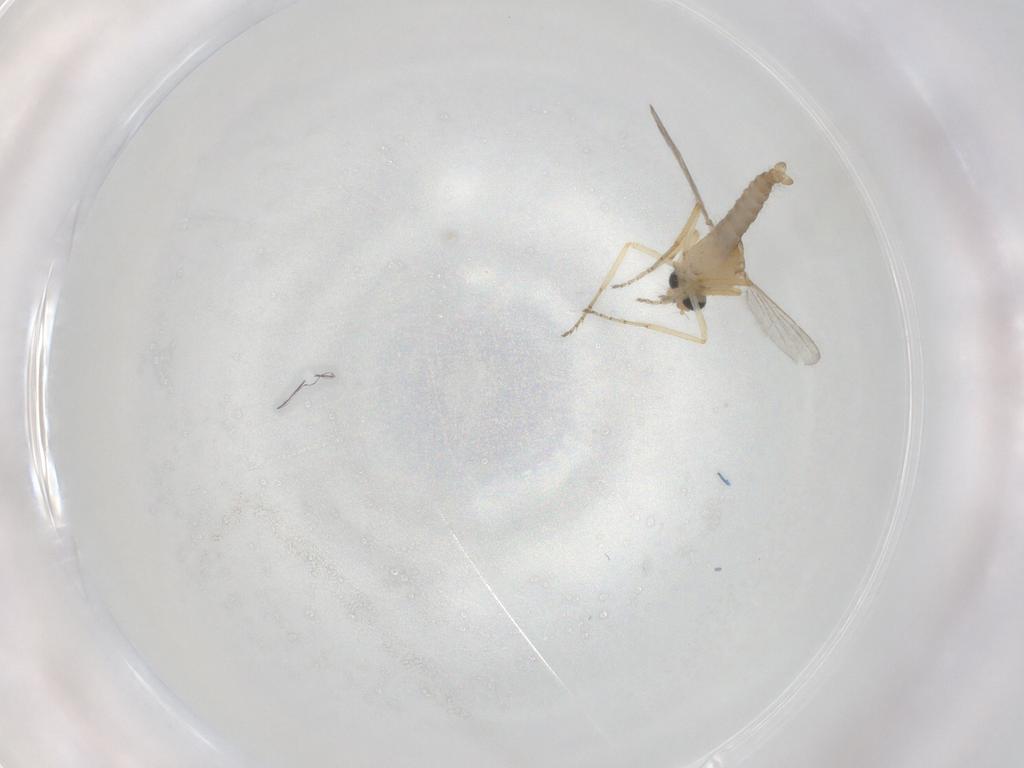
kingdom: Animalia
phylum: Arthropoda
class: Insecta
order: Diptera
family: Ceratopogonidae
